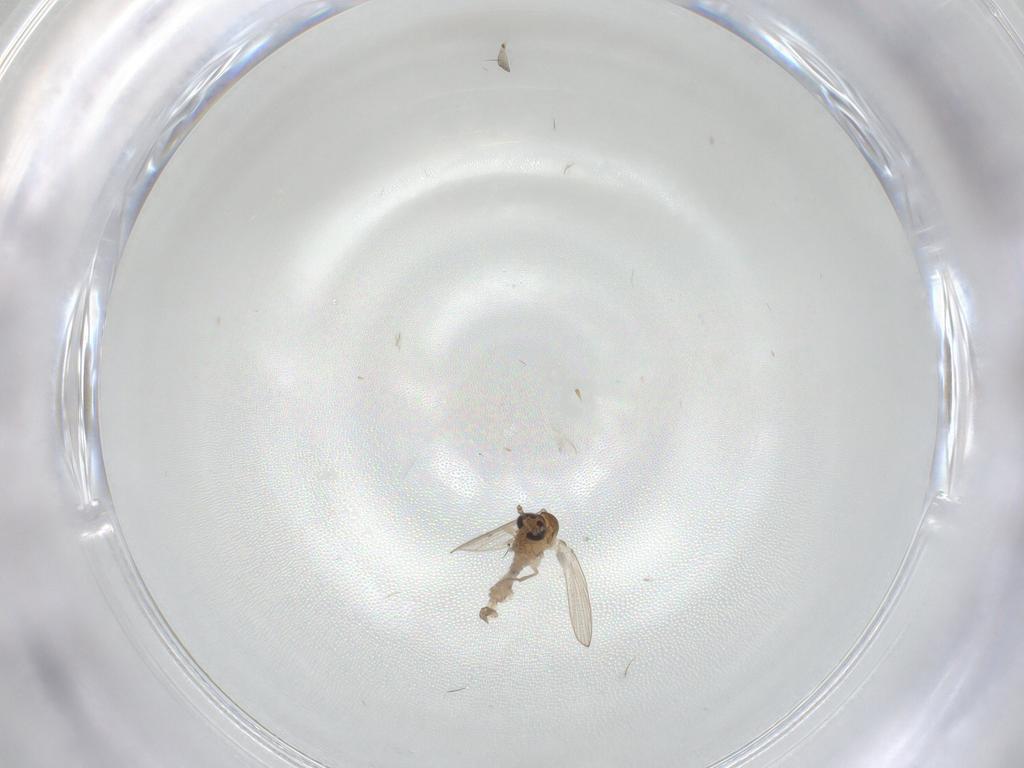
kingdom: Animalia
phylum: Arthropoda
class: Insecta
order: Diptera
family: Psychodidae
